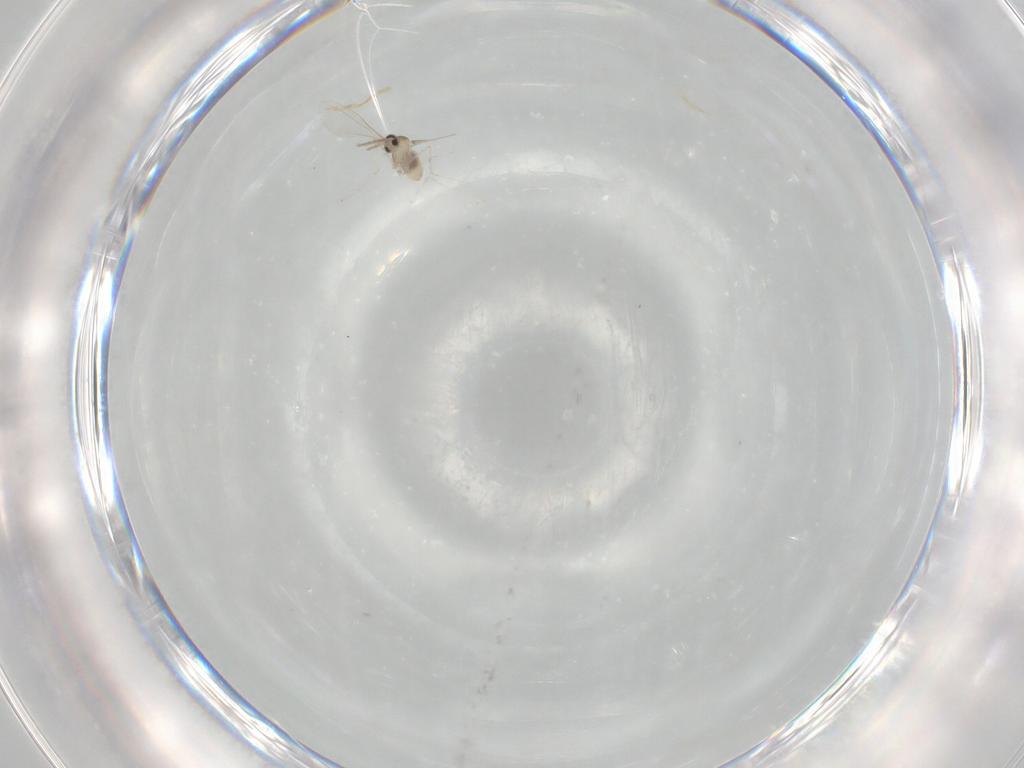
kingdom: Animalia
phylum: Arthropoda
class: Insecta
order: Diptera
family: Cecidomyiidae
